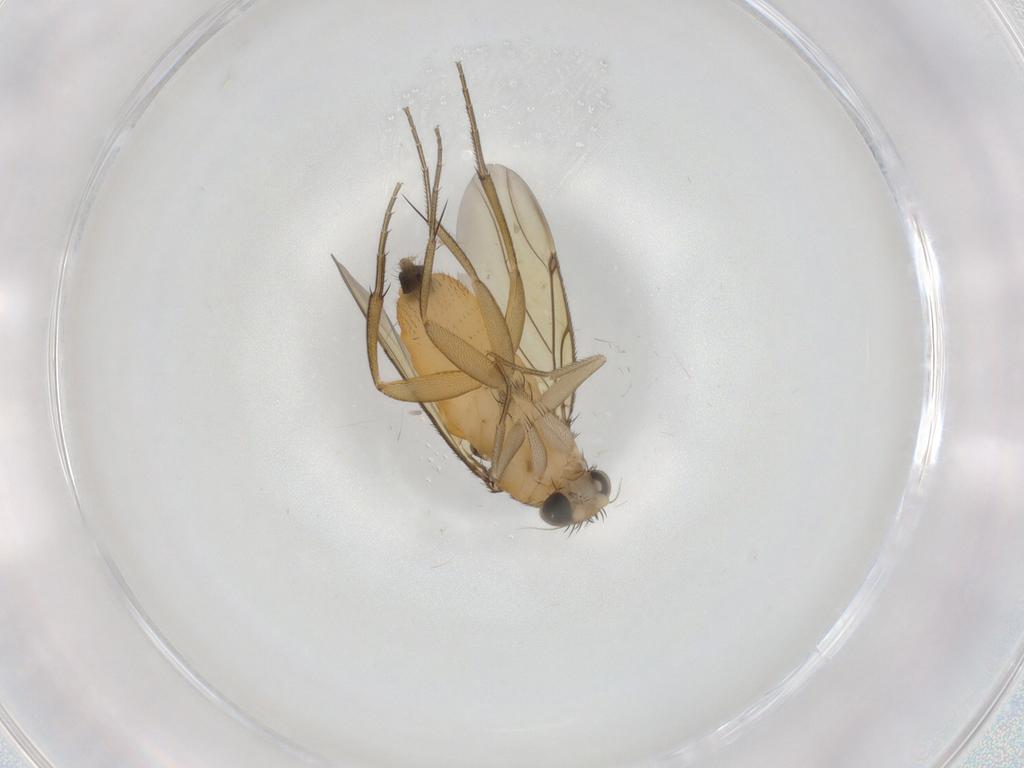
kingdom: Animalia
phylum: Arthropoda
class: Insecta
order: Diptera
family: Cecidomyiidae
